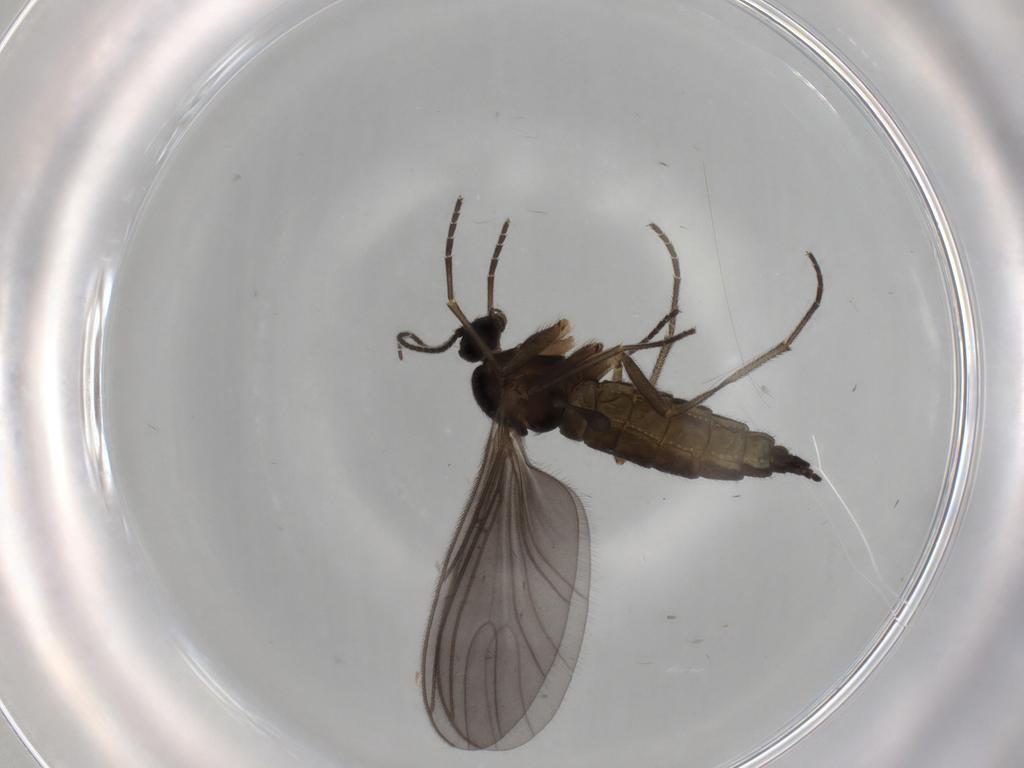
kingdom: Animalia
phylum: Arthropoda
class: Insecta
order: Diptera
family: Sciaridae
